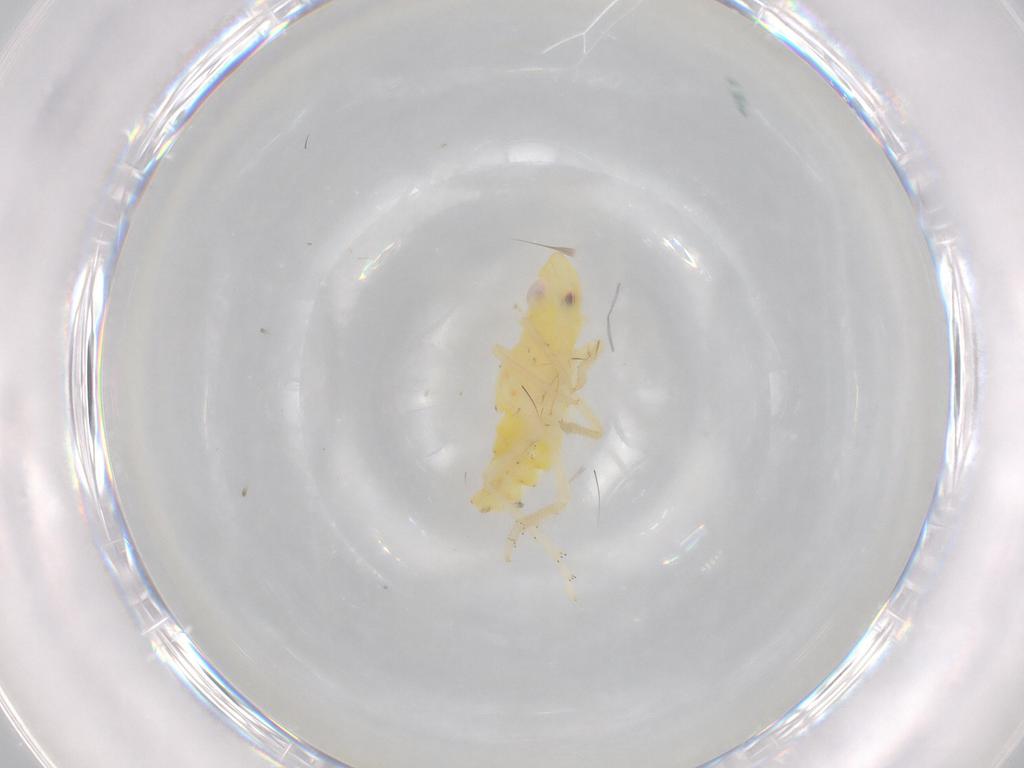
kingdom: Animalia
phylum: Arthropoda
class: Insecta
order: Hemiptera
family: Tropiduchidae
